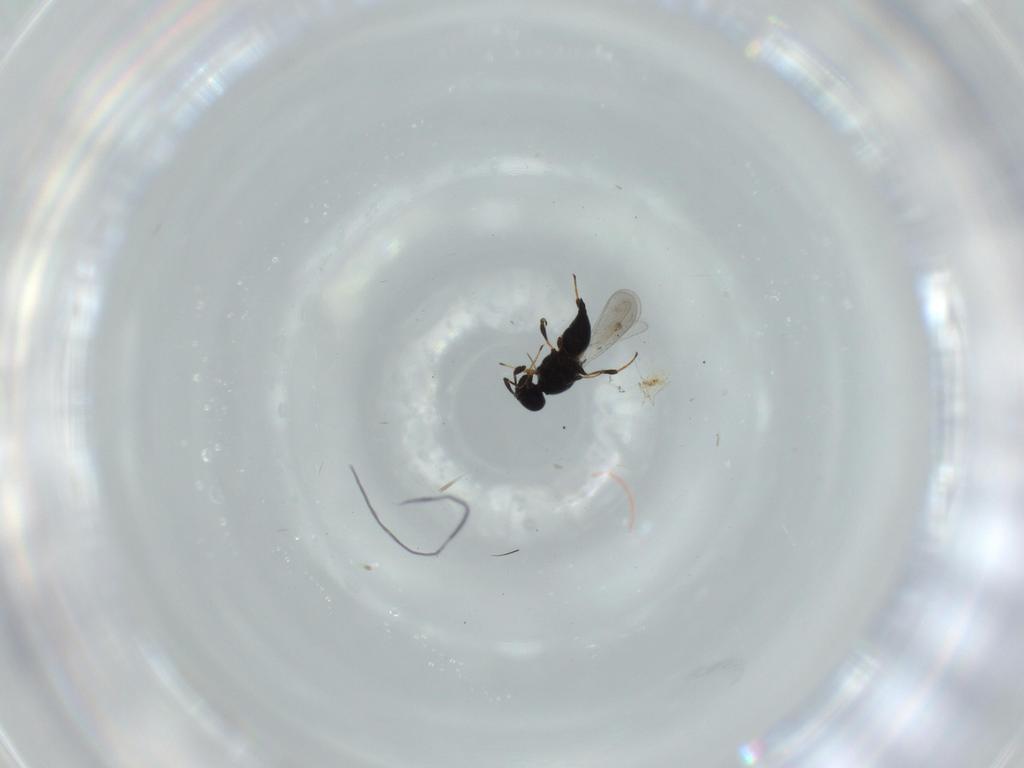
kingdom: Animalia
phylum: Arthropoda
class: Insecta
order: Hymenoptera
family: Platygastridae
